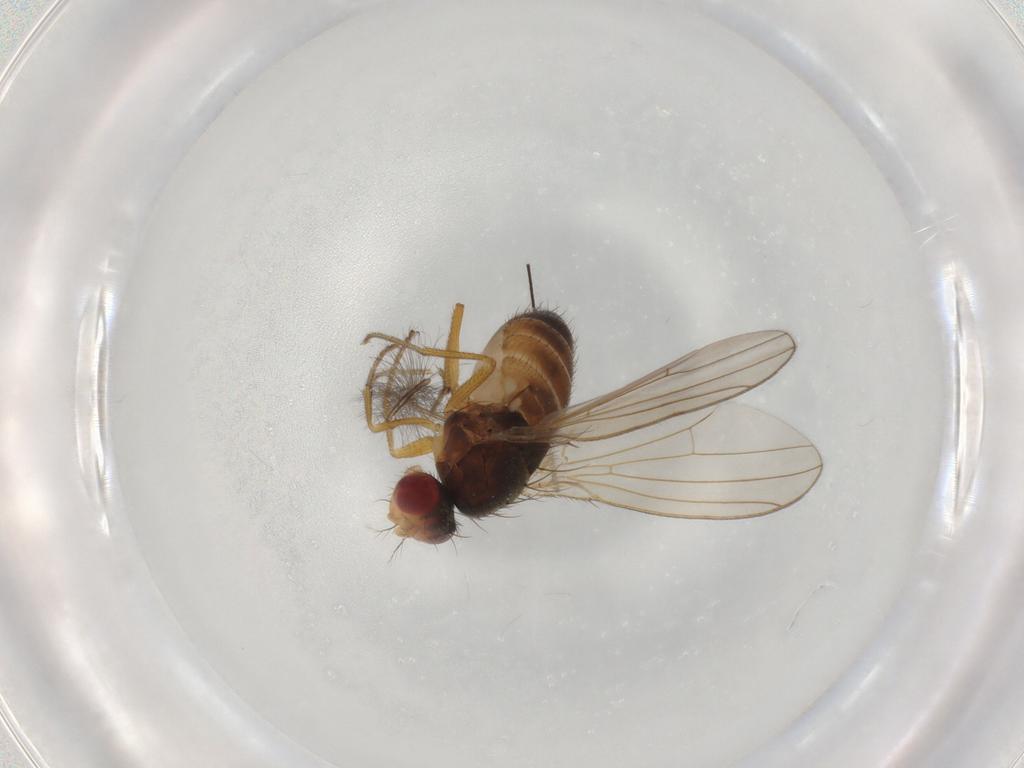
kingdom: Animalia
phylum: Arthropoda
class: Insecta
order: Diptera
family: Drosophilidae
